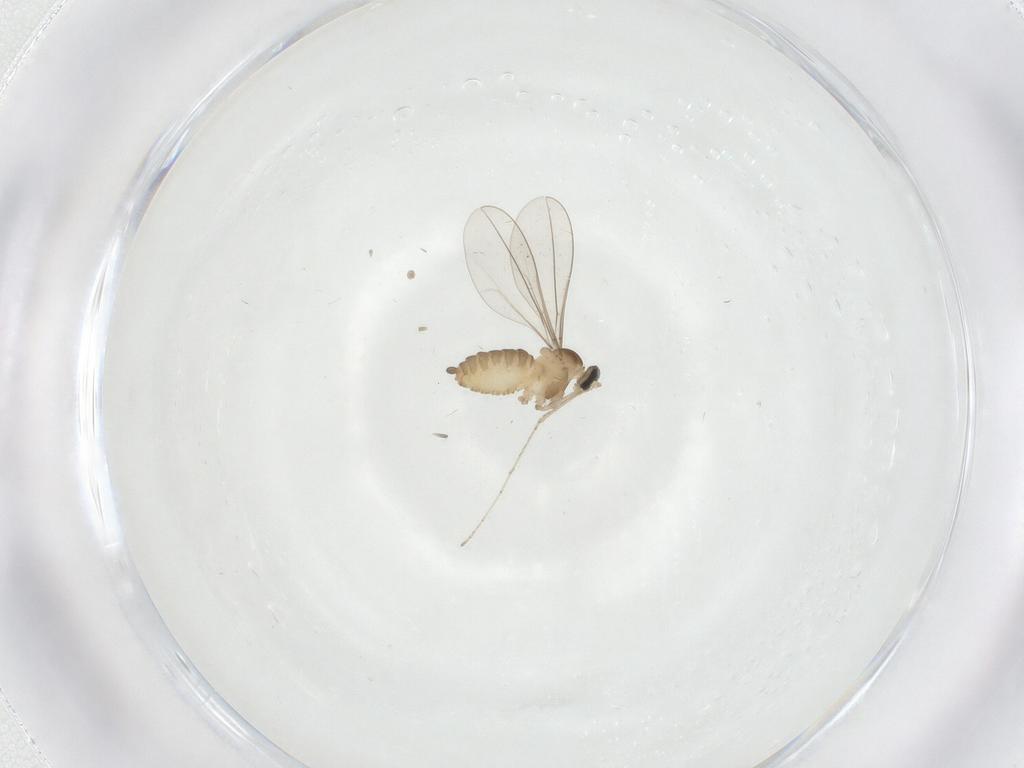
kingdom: Animalia
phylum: Arthropoda
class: Insecta
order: Diptera
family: Cecidomyiidae
